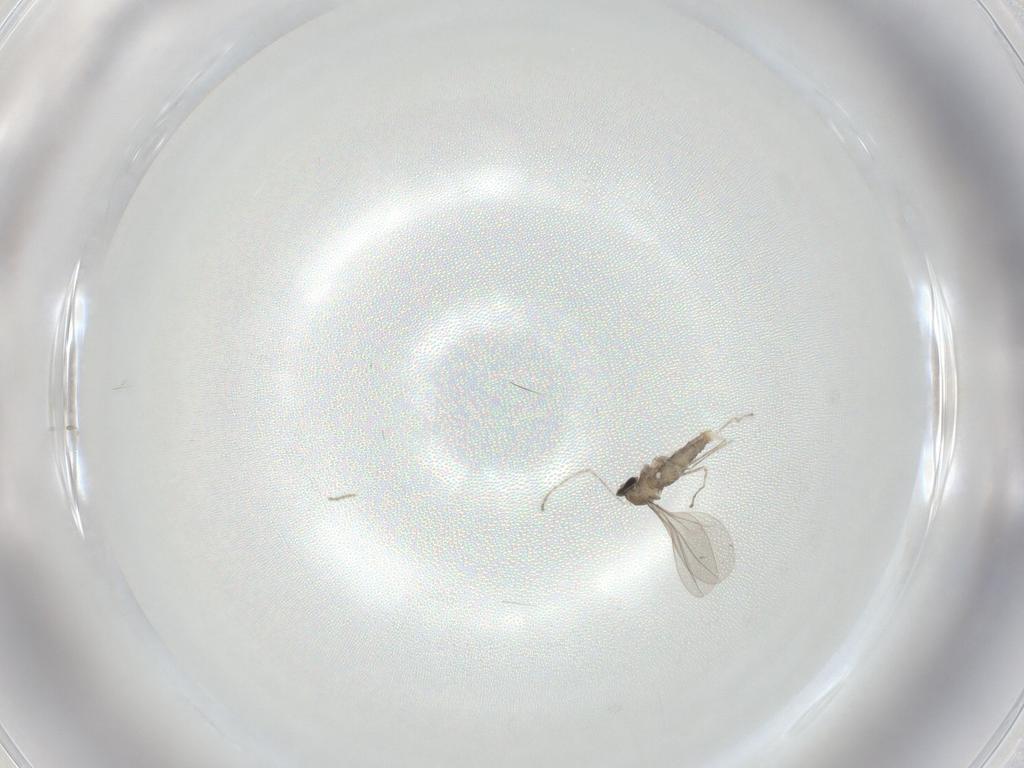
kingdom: Animalia
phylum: Arthropoda
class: Insecta
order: Diptera
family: Cecidomyiidae
